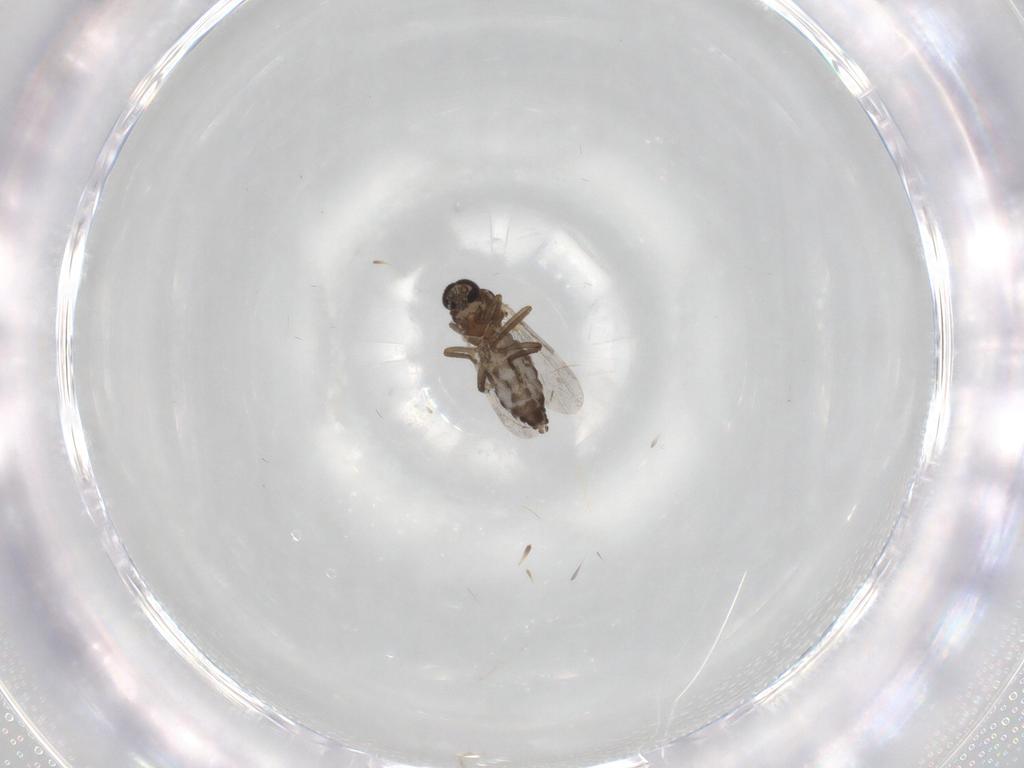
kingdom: Animalia
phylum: Arthropoda
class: Insecta
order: Diptera
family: Ceratopogonidae
